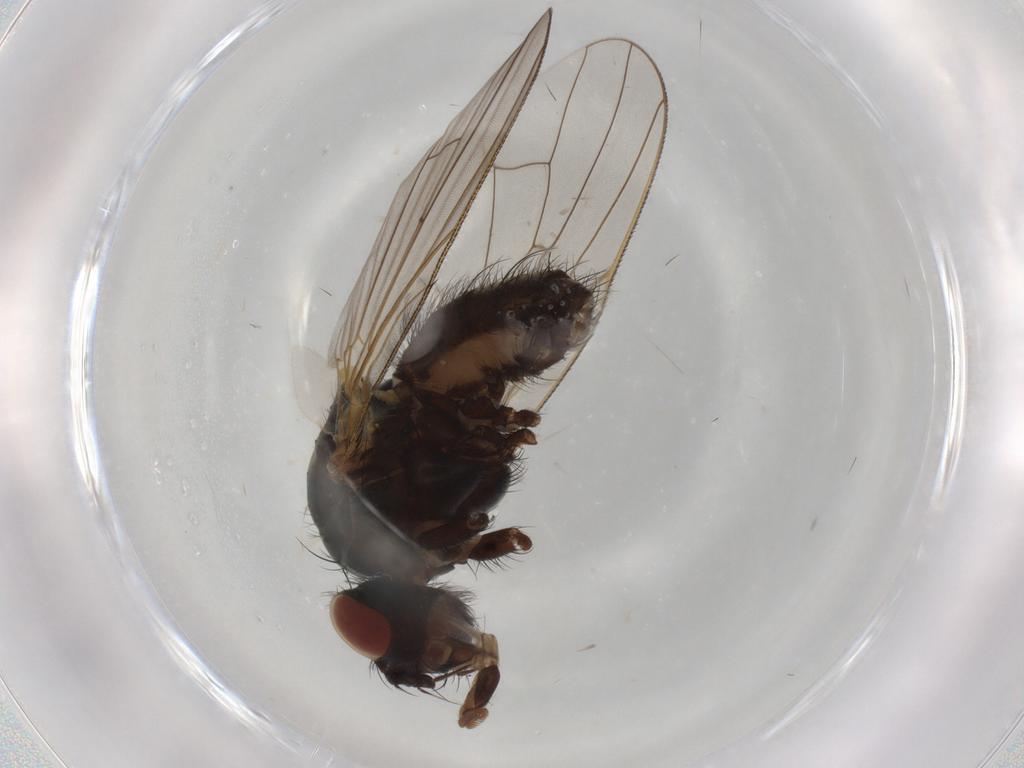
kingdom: Animalia
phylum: Arthropoda
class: Insecta
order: Diptera
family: Anthomyiidae
